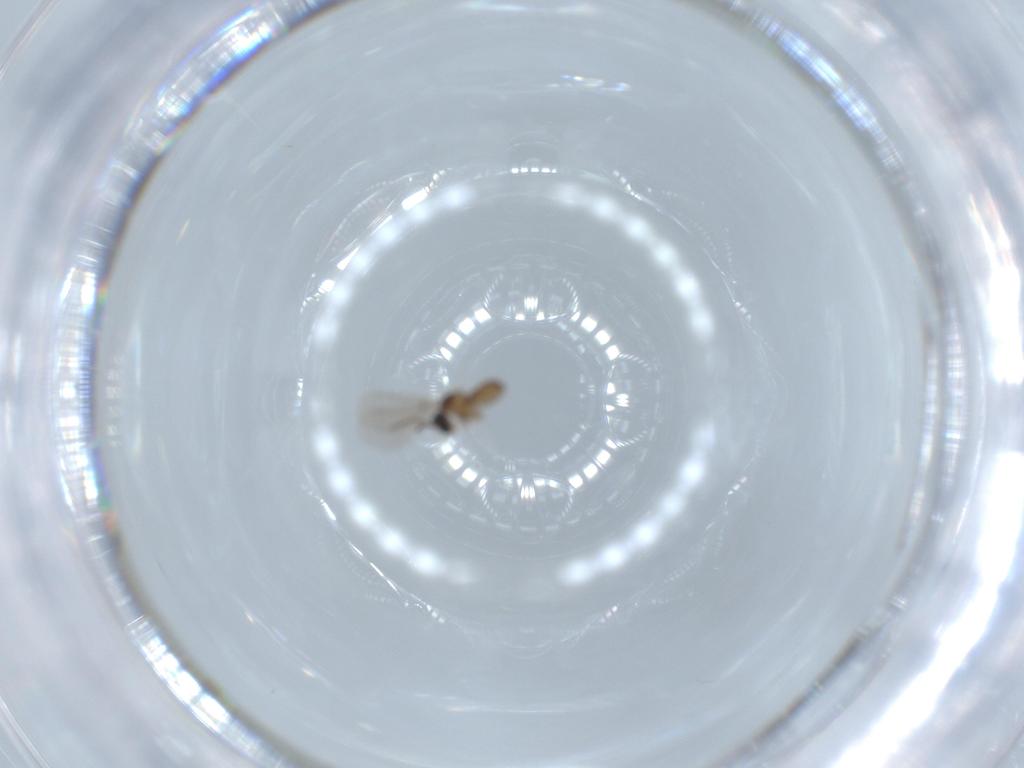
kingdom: Animalia
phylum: Arthropoda
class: Insecta
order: Diptera
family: Cecidomyiidae
